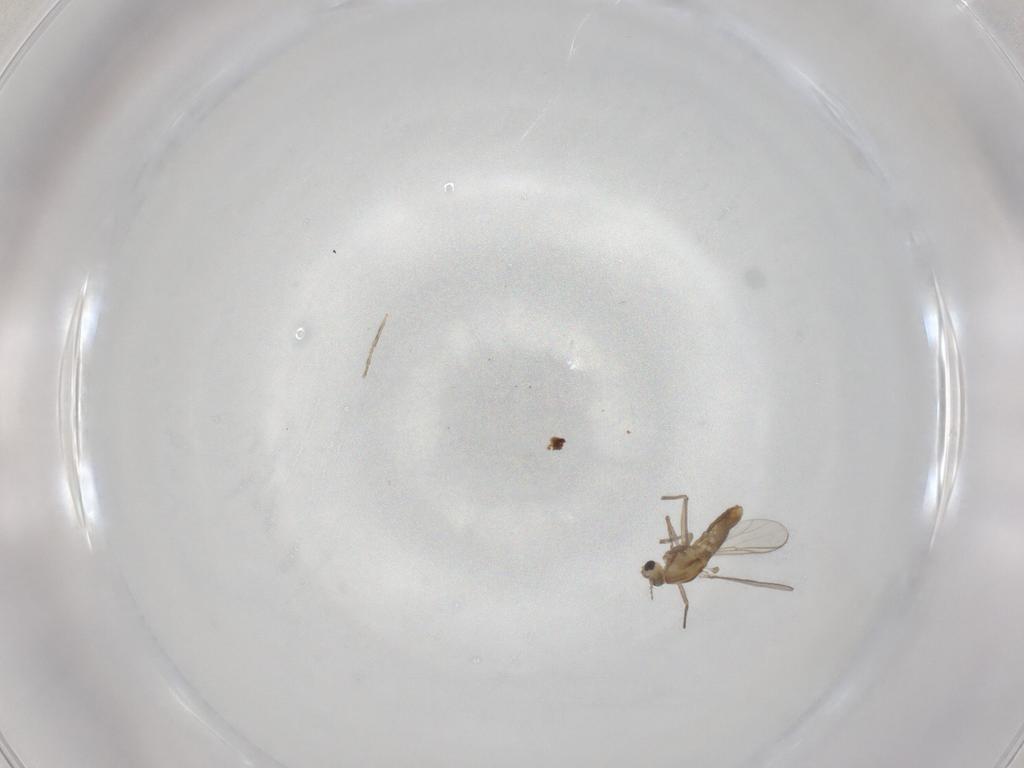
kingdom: Animalia
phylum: Arthropoda
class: Insecta
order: Diptera
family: Chironomidae
